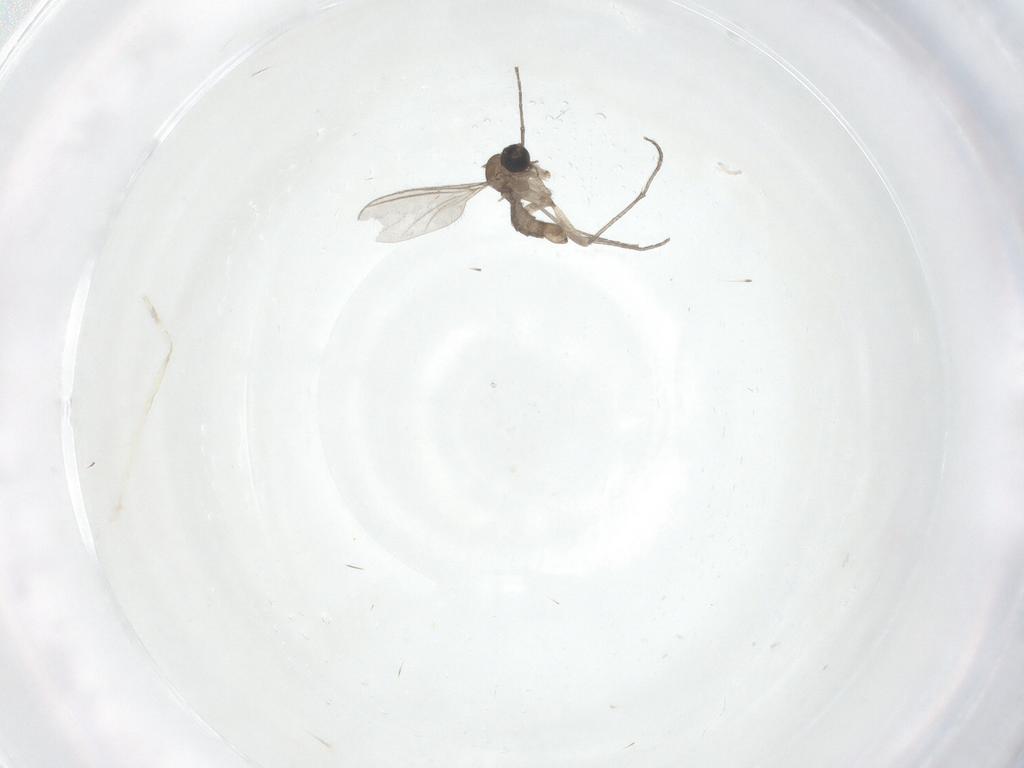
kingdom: Animalia
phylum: Arthropoda
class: Insecta
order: Diptera
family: Sciaridae
